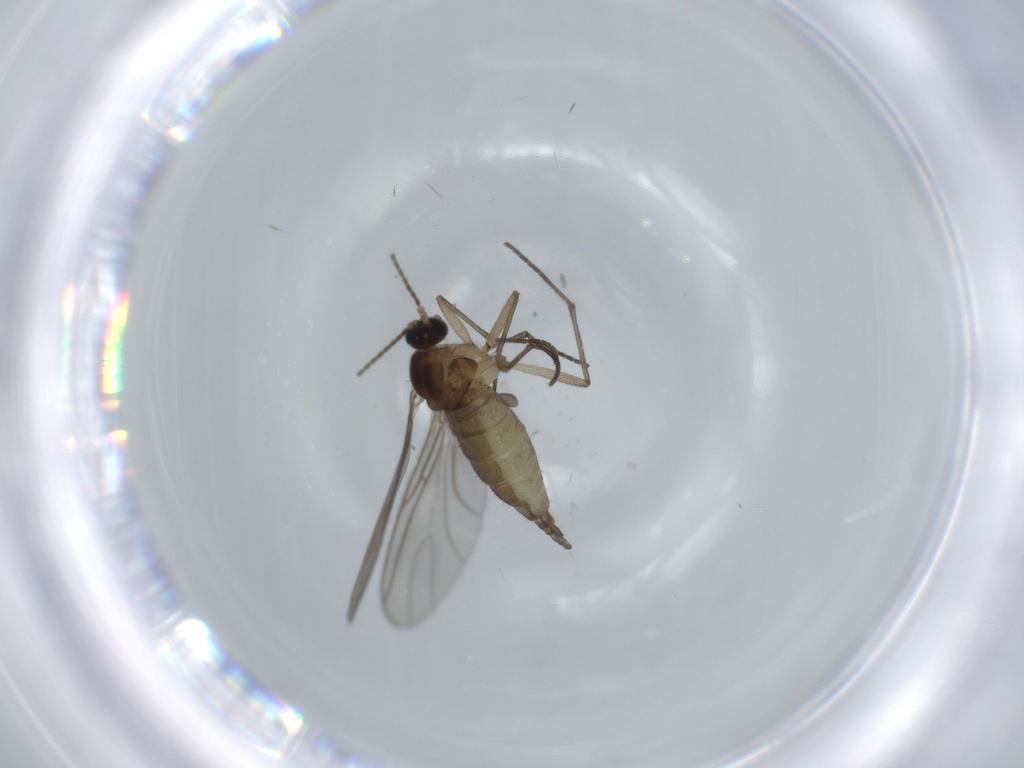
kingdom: Animalia
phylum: Arthropoda
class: Insecta
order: Diptera
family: Sciaridae
